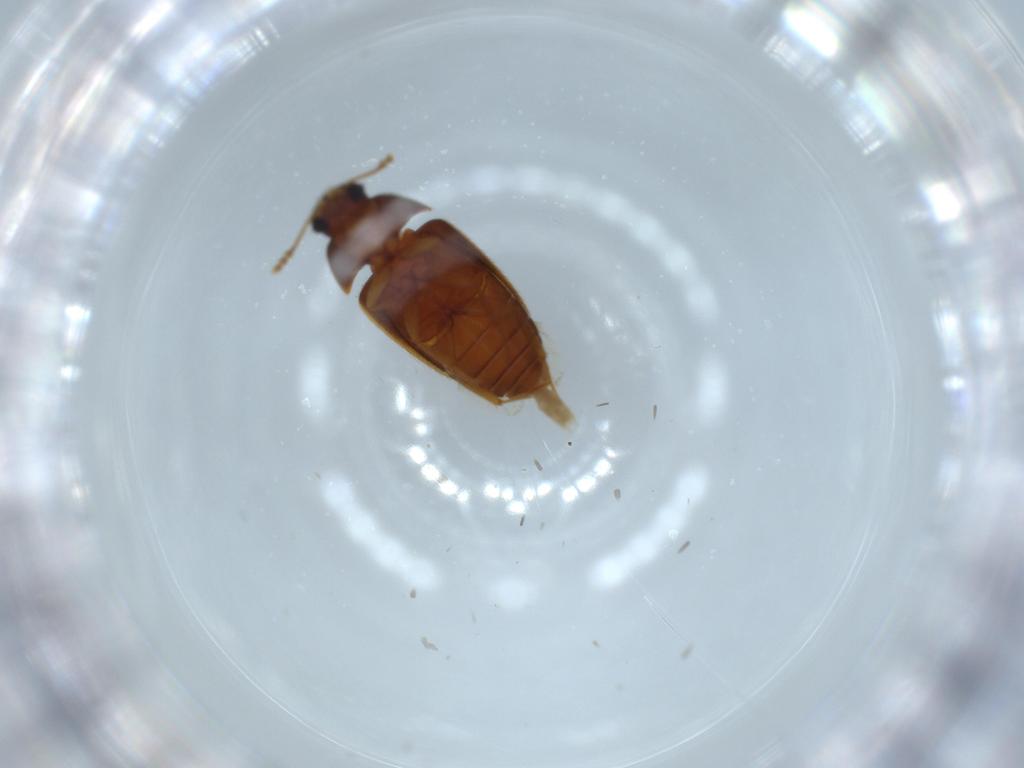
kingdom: Animalia
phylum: Arthropoda
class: Insecta
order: Coleoptera
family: Mycetophagidae
